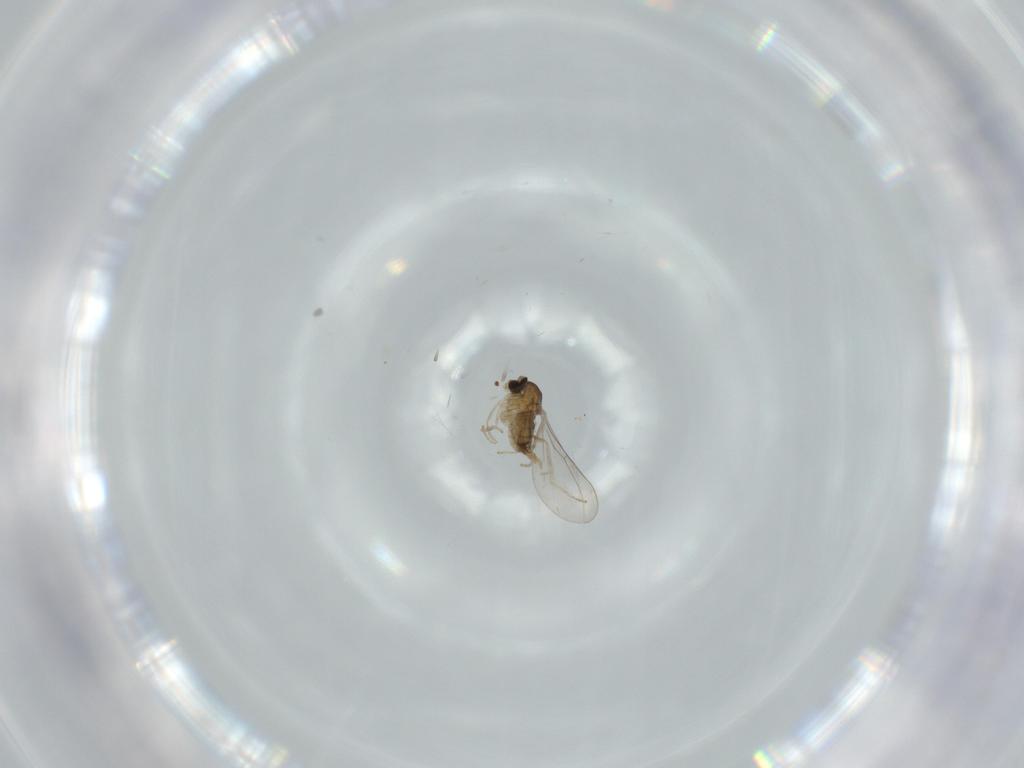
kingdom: Animalia
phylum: Arthropoda
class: Insecta
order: Diptera
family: Cecidomyiidae
